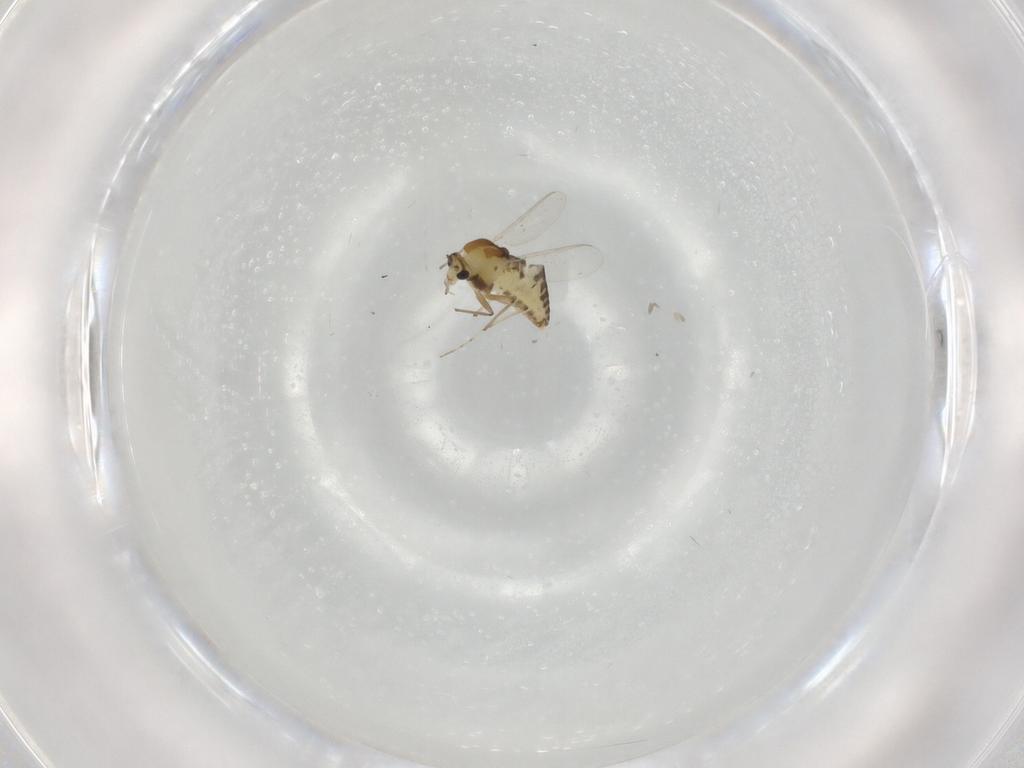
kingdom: Animalia
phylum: Arthropoda
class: Insecta
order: Diptera
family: Chironomidae
